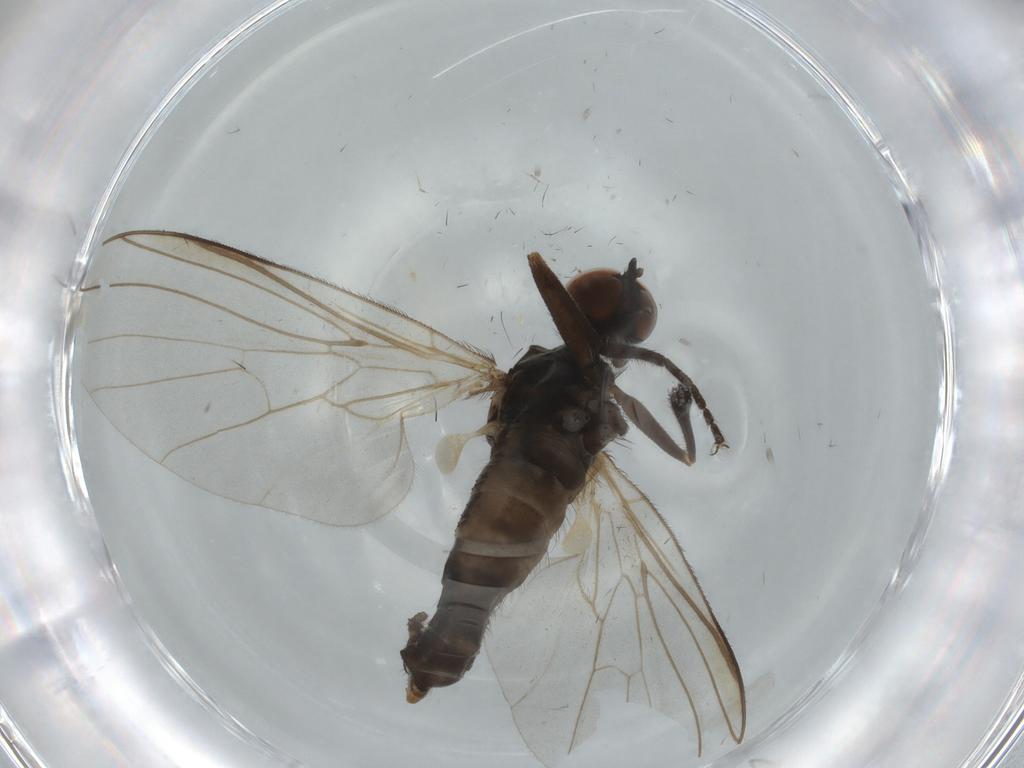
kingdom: Animalia
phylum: Arthropoda
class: Insecta
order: Diptera
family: Empididae
